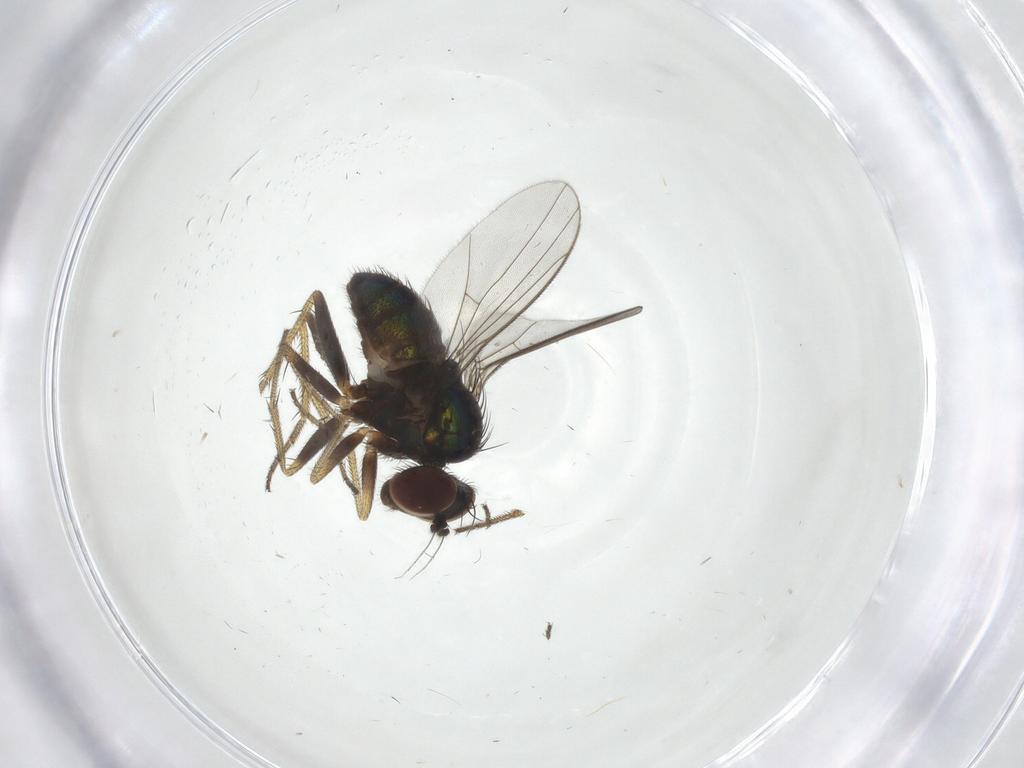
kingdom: Animalia
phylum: Arthropoda
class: Insecta
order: Diptera
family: Dolichopodidae
